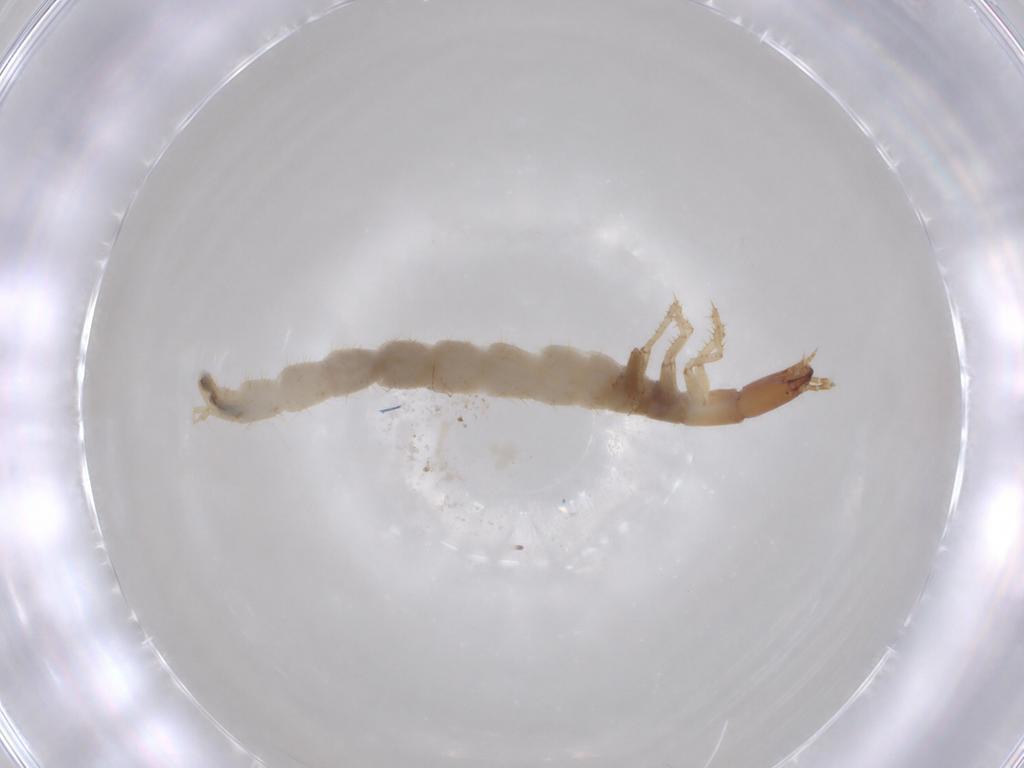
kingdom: Animalia
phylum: Arthropoda
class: Insecta
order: Coleoptera
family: Staphylinidae
